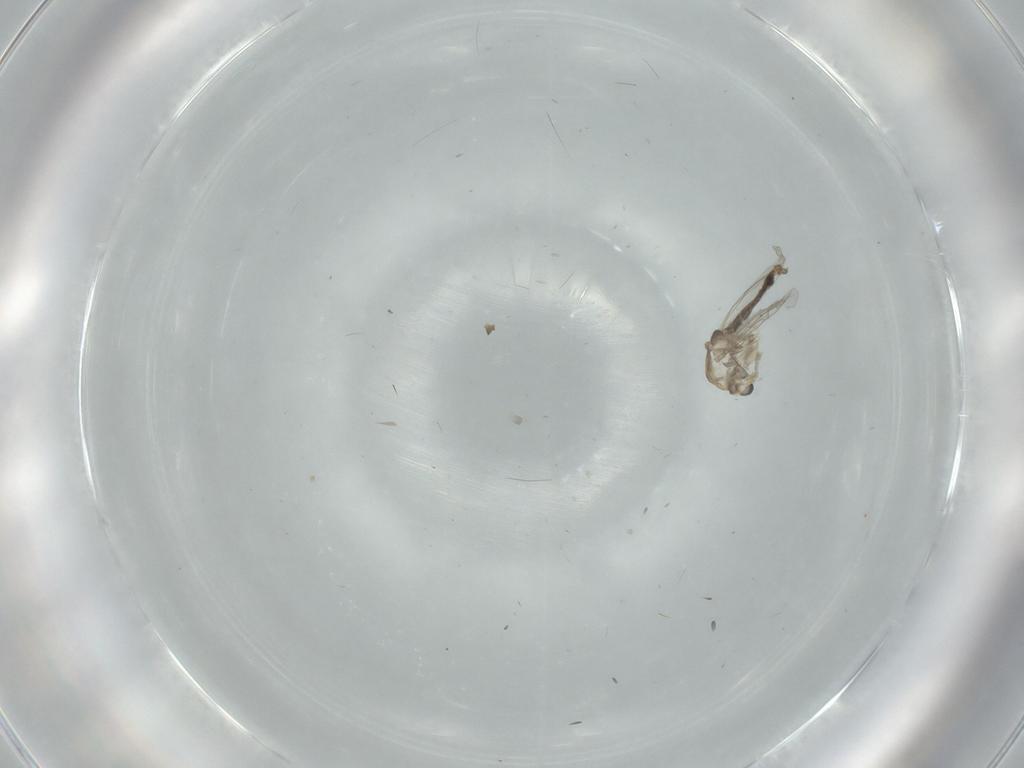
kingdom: Animalia
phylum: Arthropoda
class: Insecta
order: Diptera
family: Chironomidae
